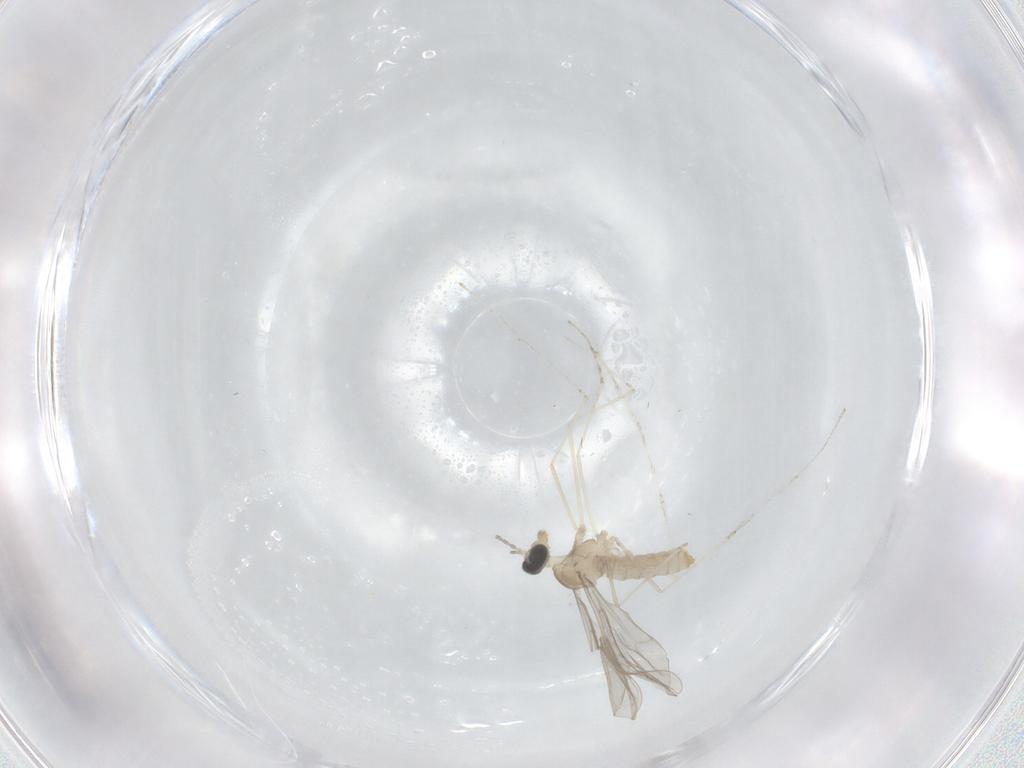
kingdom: Animalia
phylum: Arthropoda
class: Insecta
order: Diptera
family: Cecidomyiidae
